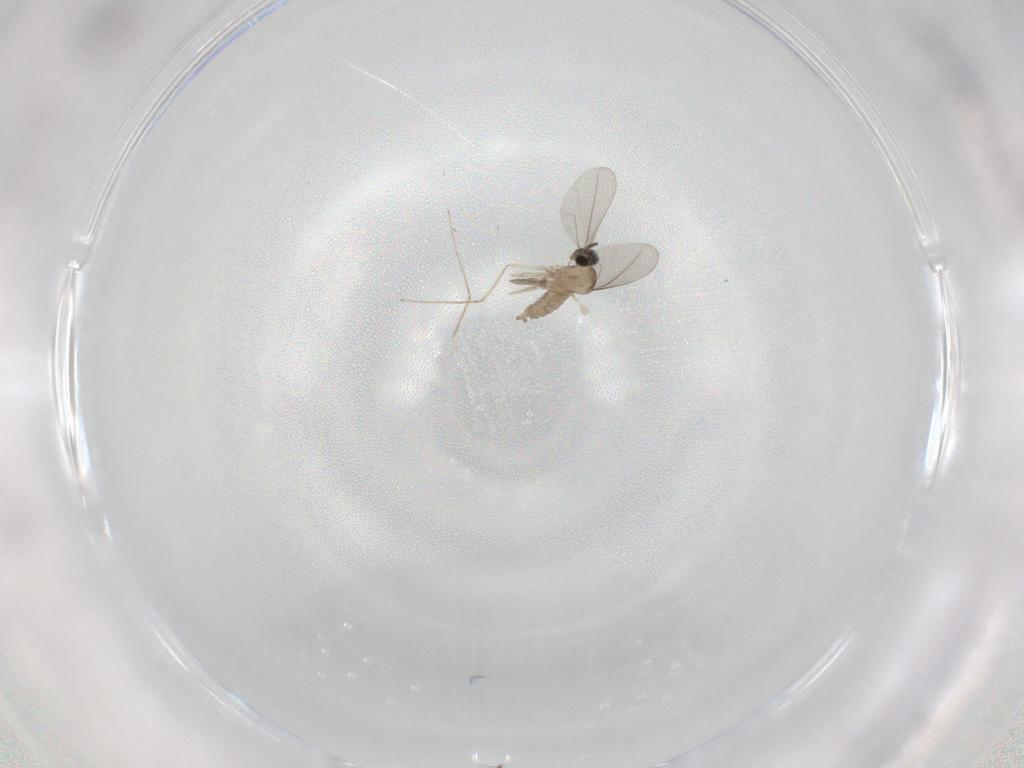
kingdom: Animalia
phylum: Arthropoda
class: Insecta
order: Diptera
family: Cecidomyiidae
